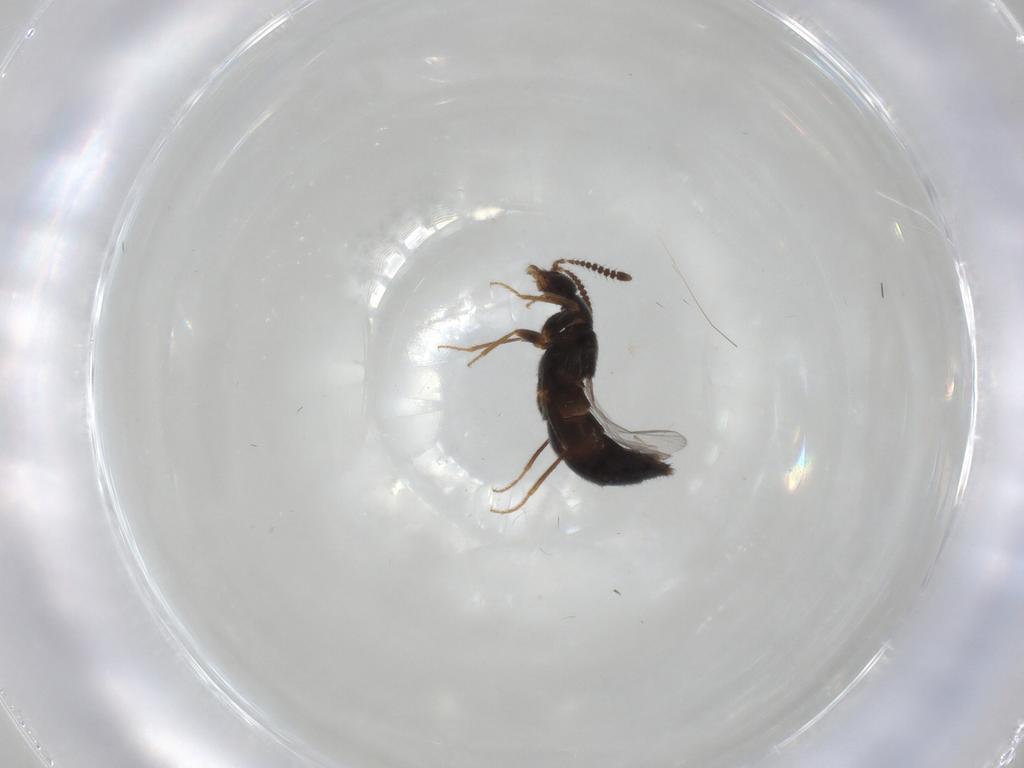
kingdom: Animalia
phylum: Arthropoda
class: Insecta
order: Coleoptera
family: Staphylinidae
